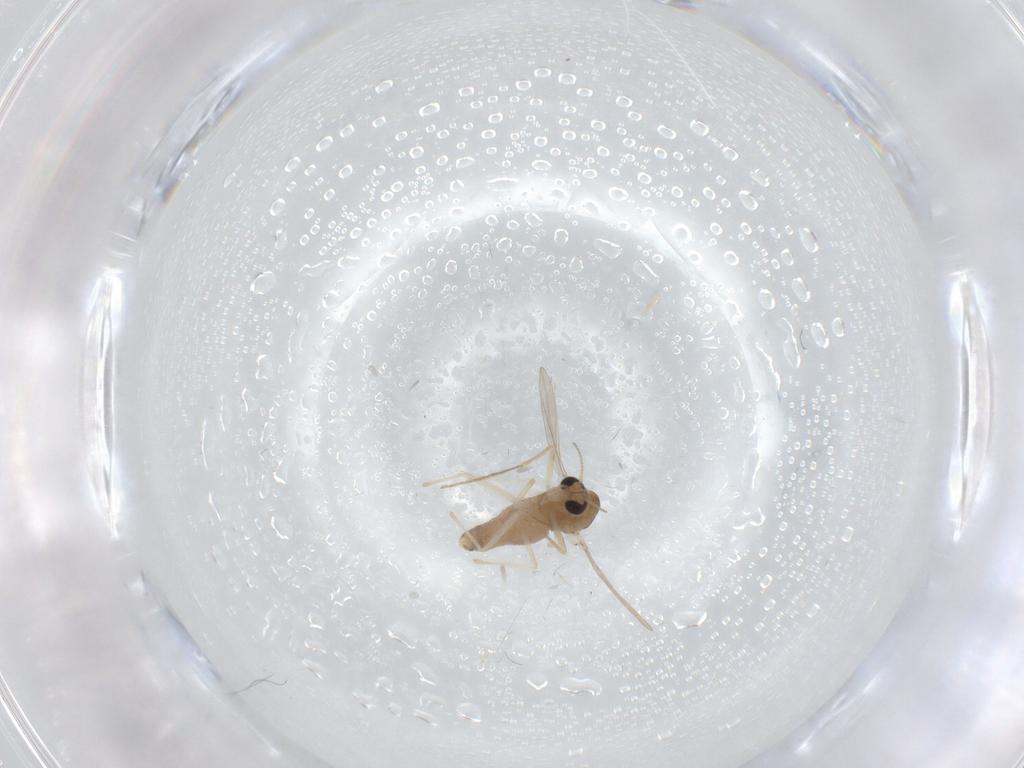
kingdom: Animalia
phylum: Arthropoda
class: Insecta
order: Diptera
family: Chironomidae
